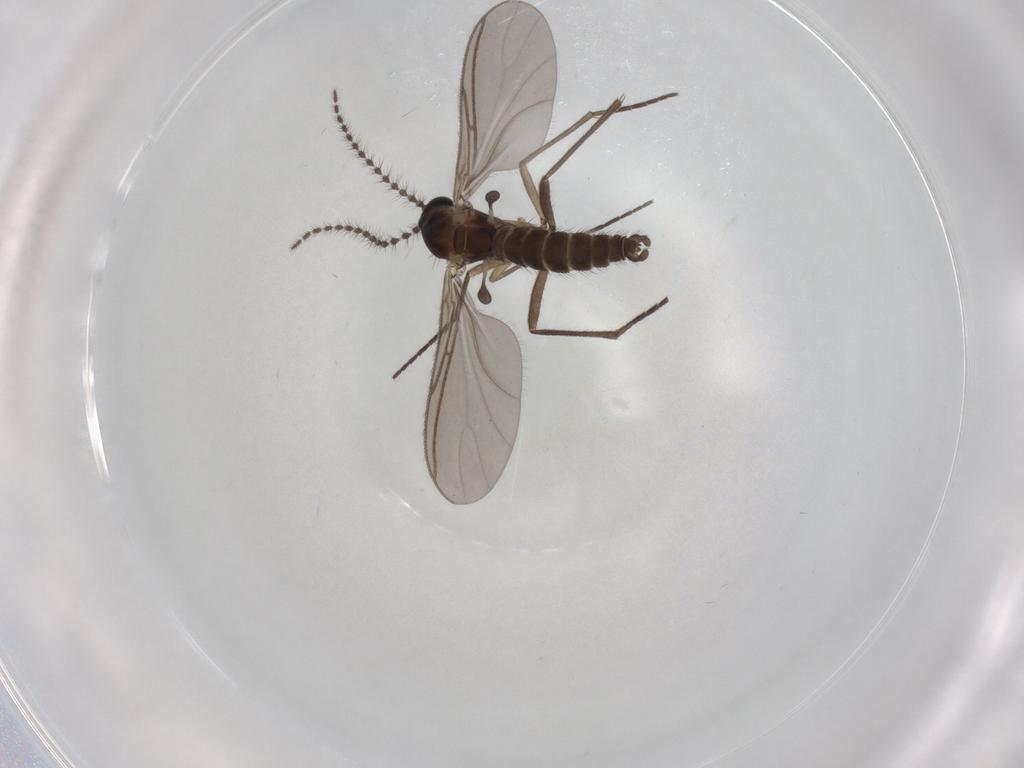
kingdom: Animalia
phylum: Arthropoda
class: Insecta
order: Diptera
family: Sciaridae
